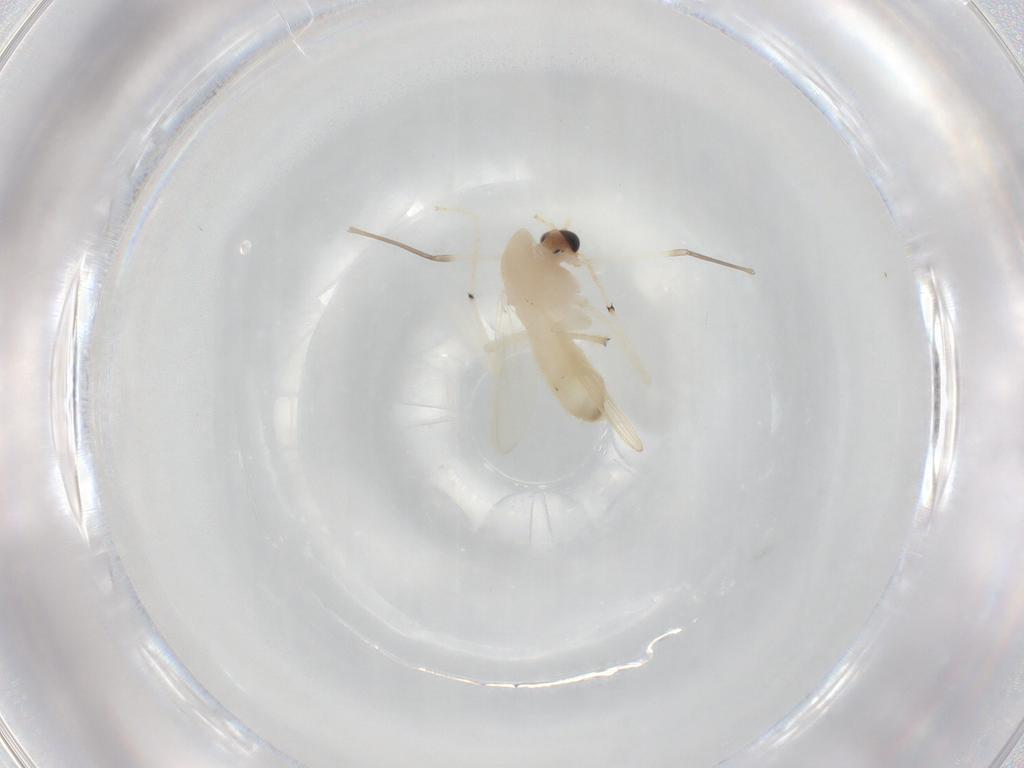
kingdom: Animalia
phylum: Arthropoda
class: Insecta
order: Diptera
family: Chironomidae
